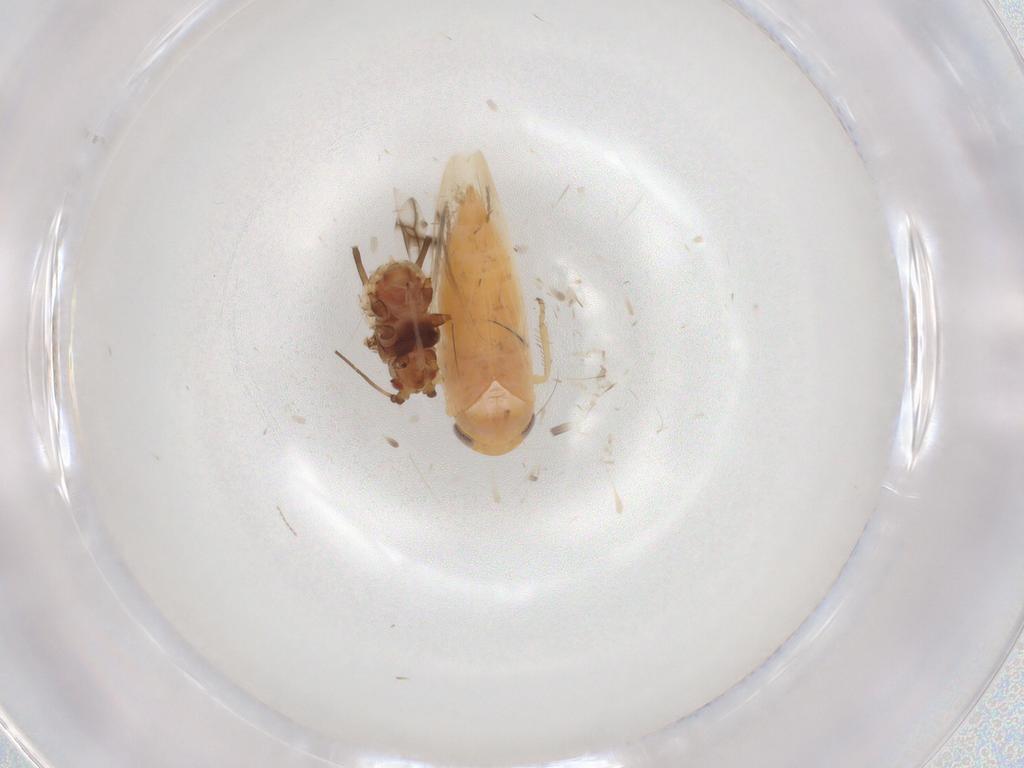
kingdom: Animalia
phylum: Arthropoda
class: Insecta
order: Hemiptera
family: Aphididae
